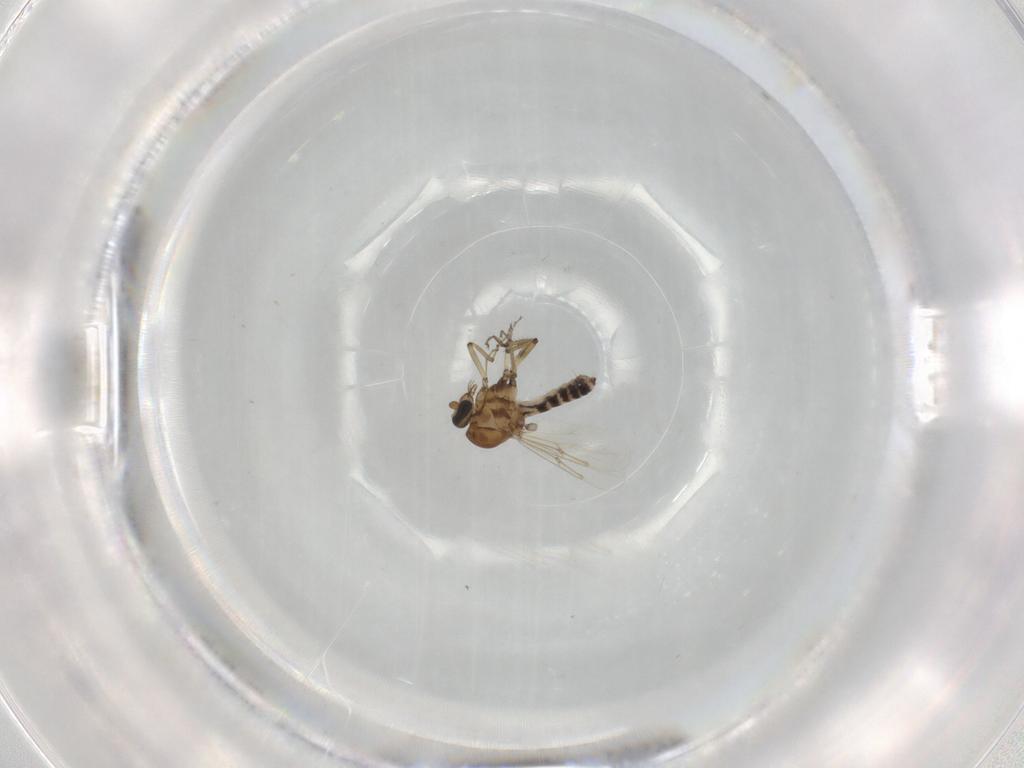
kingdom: Animalia
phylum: Arthropoda
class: Insecta
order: Diptera
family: Ceratopogonidae
